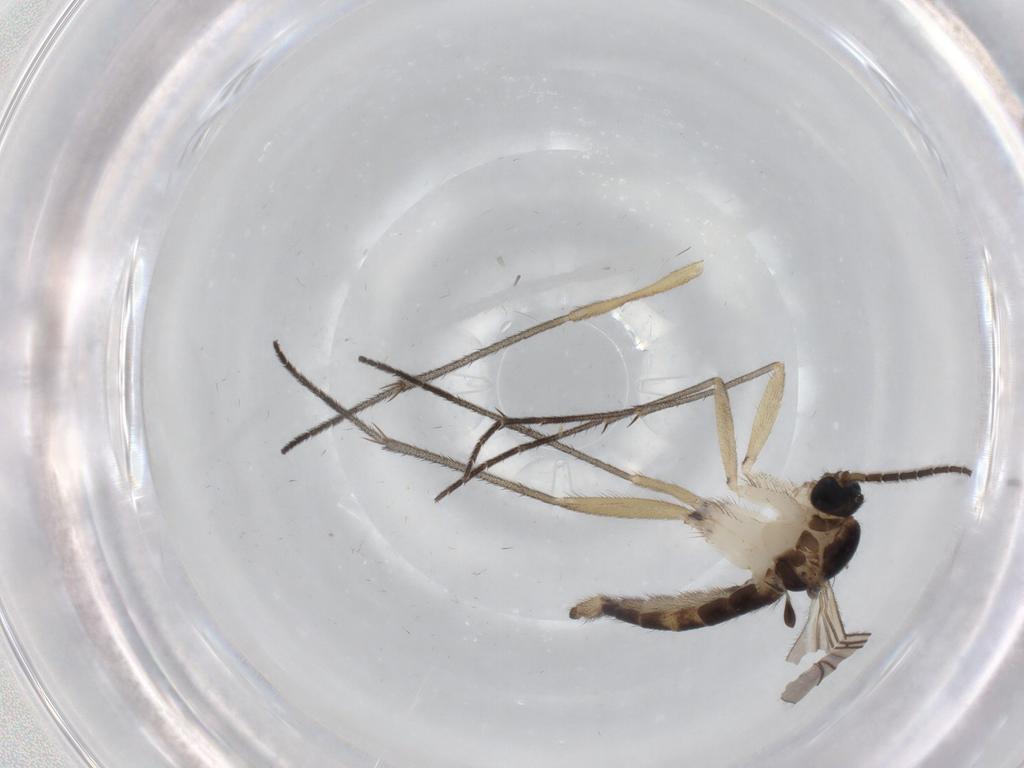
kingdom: Animalia
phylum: Arthropoda
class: Insecta
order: Diptera
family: Sciaridae
